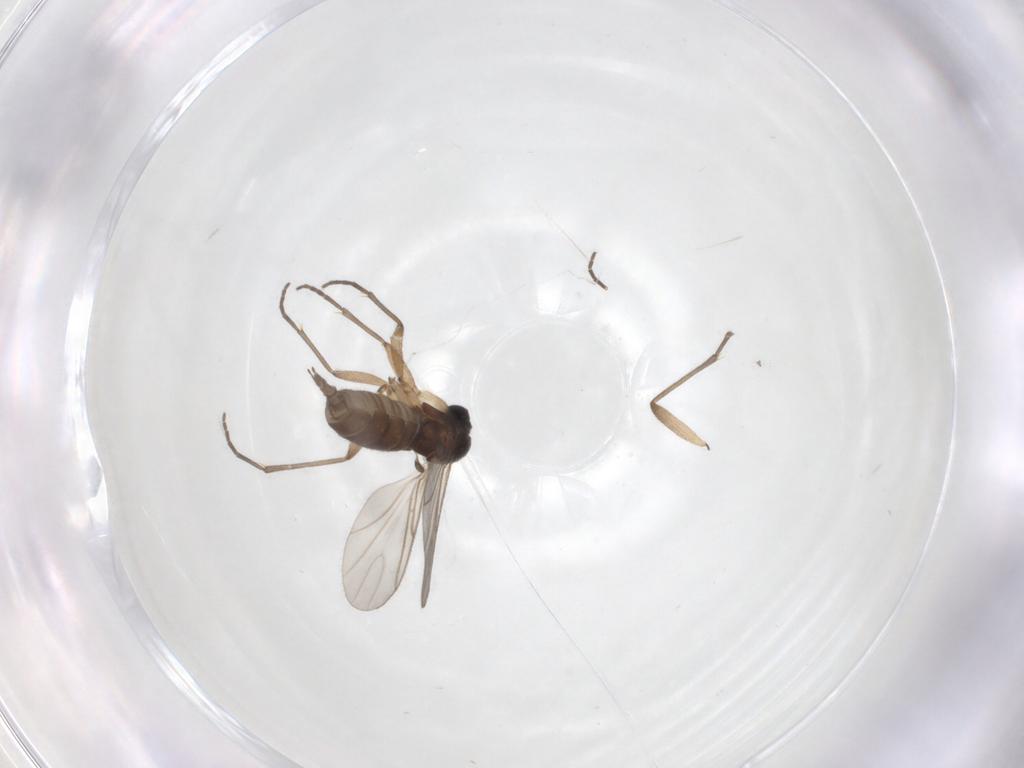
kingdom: Animalia
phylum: Arthropoda
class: Insecta
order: Diptera
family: Sciaridae
